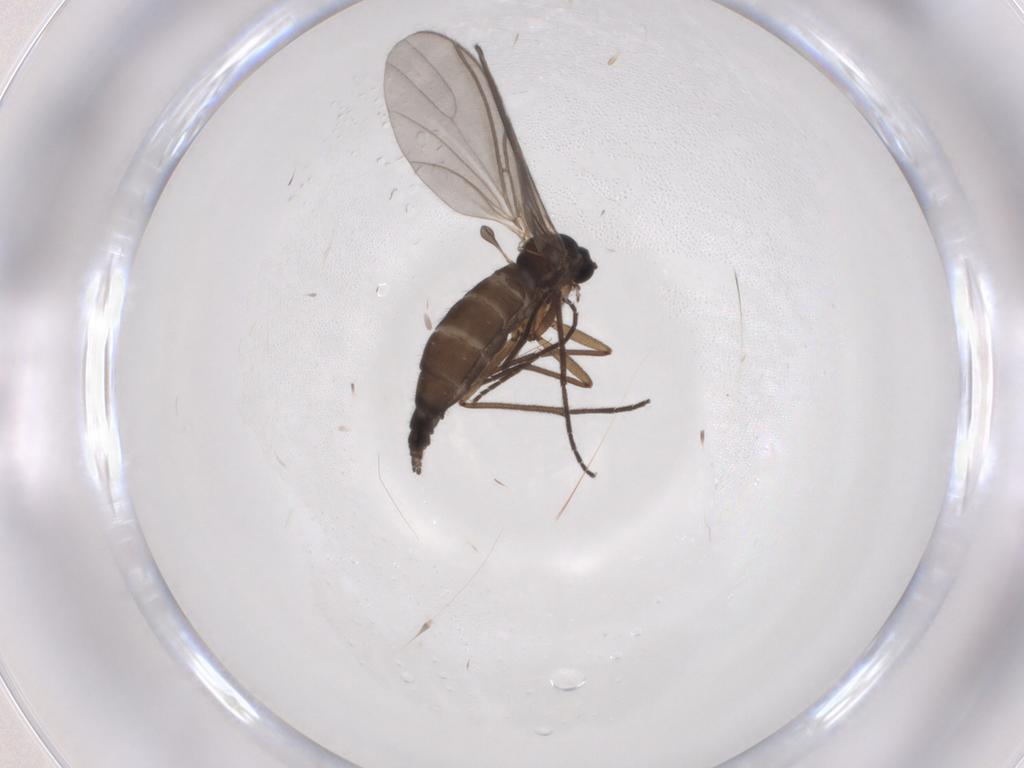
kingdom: Animalia
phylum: Arthropoda
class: Insecta
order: Diptera
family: Sciaridae
